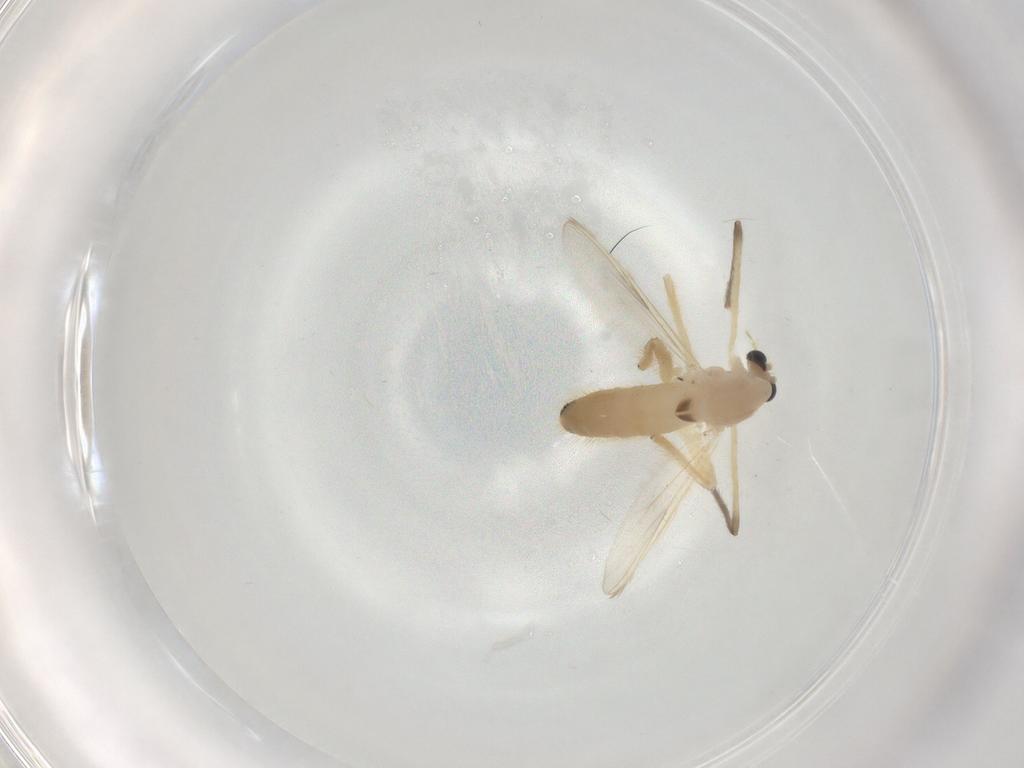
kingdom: Animalia
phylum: Arthropoda
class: Insecta
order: Diptera
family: Chironomidae
